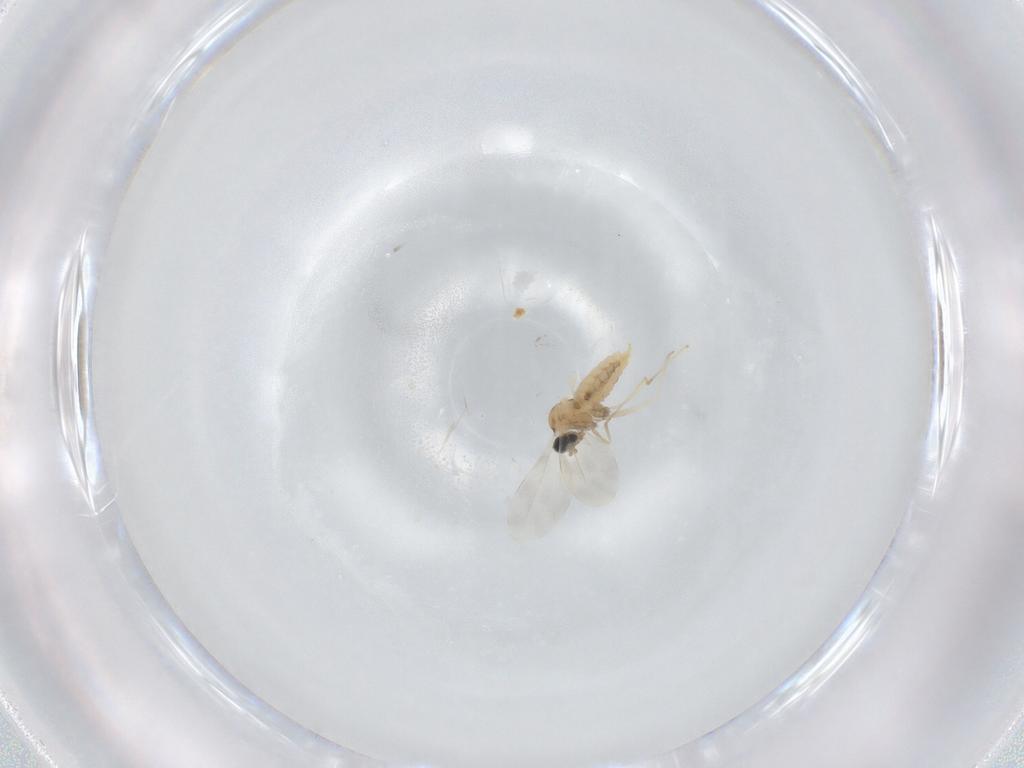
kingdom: Animalia
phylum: Arthropoda
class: Insecta
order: Diptera
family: Cecidomyiidae
